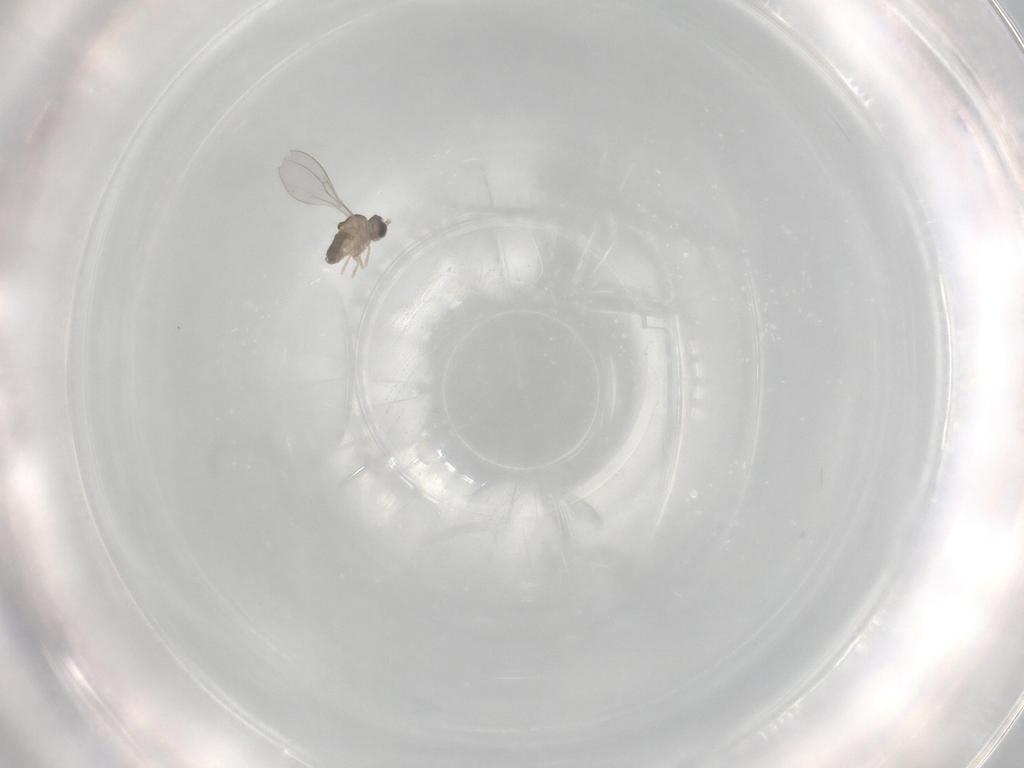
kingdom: Animalia
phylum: Arthropoda
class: Insecta
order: Diptera
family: Cecidomyiidae
